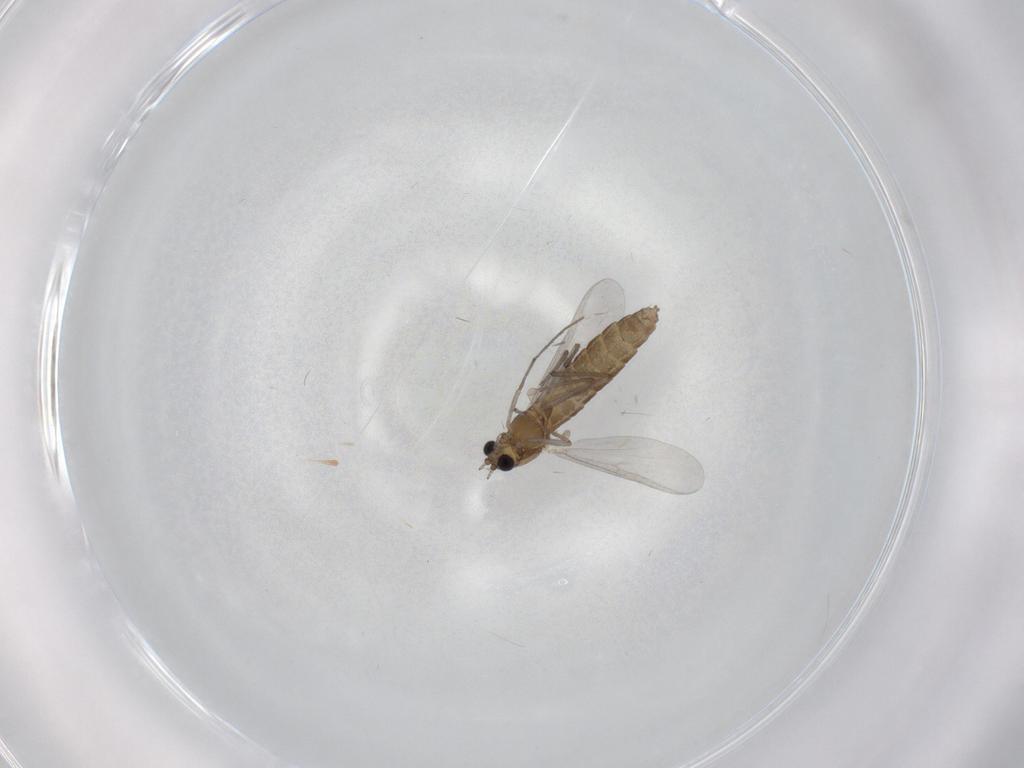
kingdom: Animalia
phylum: Arthropoda
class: Insecta
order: Diptera
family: Chironomidae
